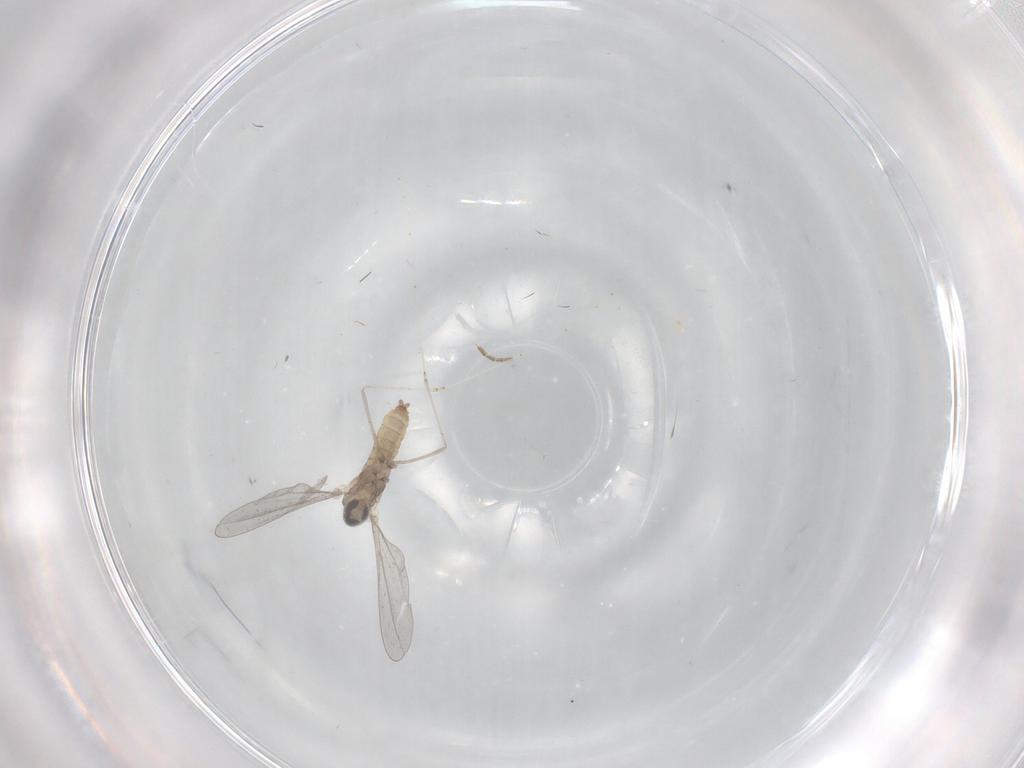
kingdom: Animalia
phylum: Arthropoda
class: Insecta
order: Diptera
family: Cecidomyiidae
